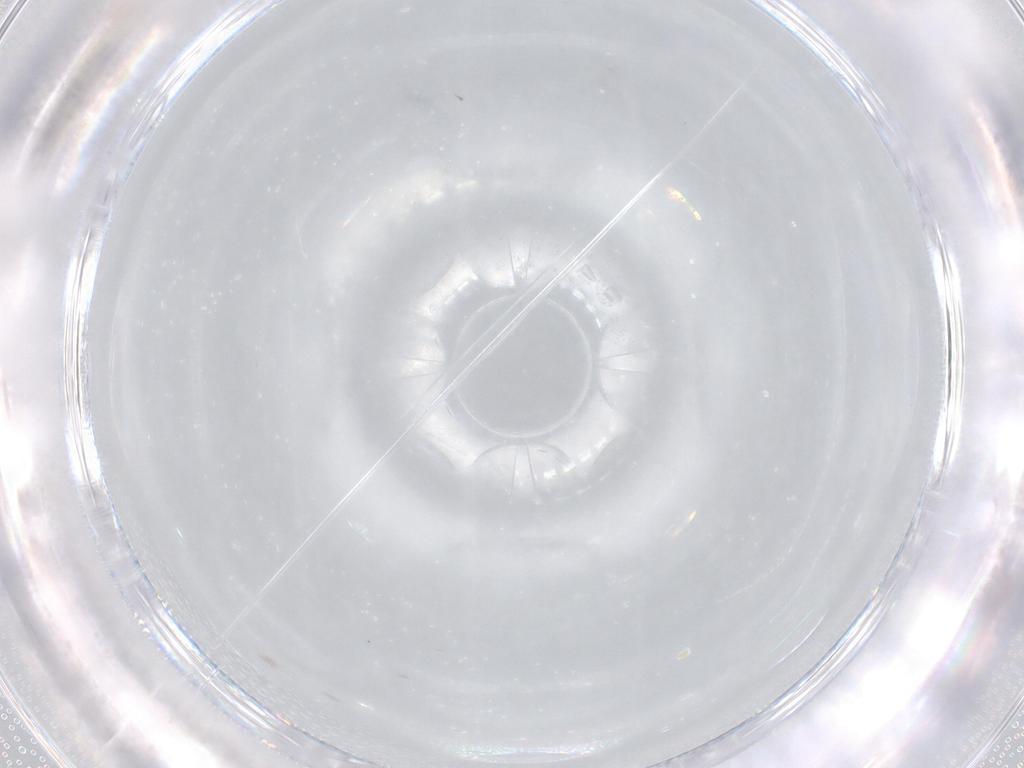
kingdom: Animalia
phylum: Arthropoda
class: Insecta
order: Diptera
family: Cecidomyiidae
